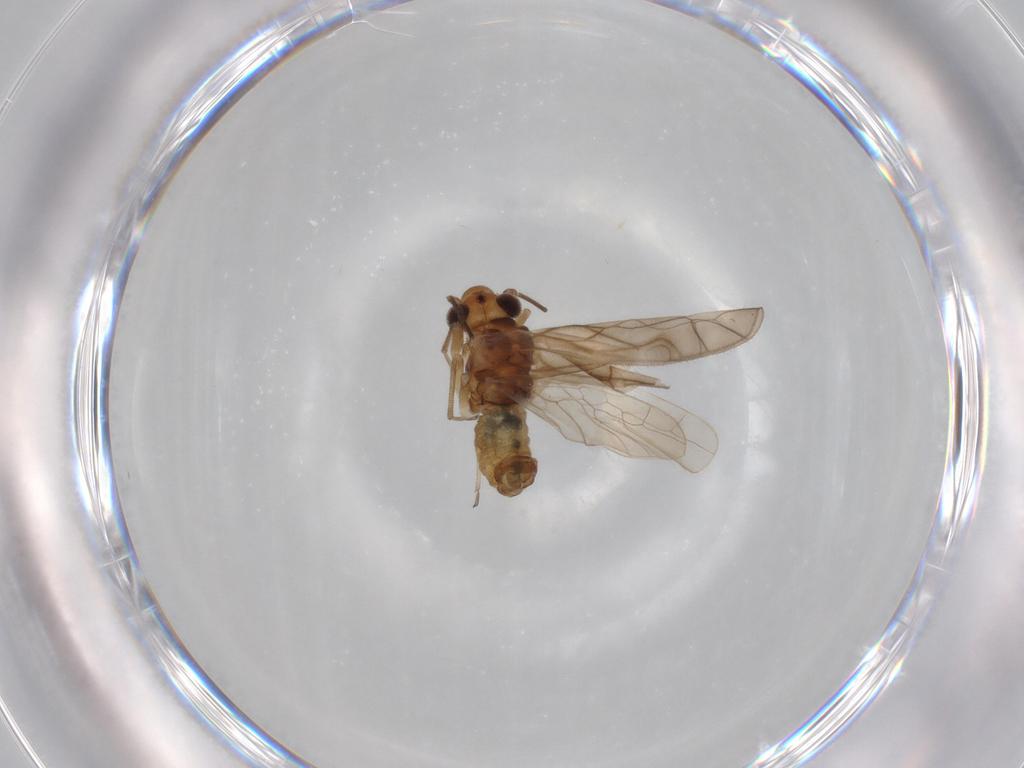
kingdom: Animalia
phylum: Arthropoda
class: Insecta
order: Psocodea
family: Philotarsidae
